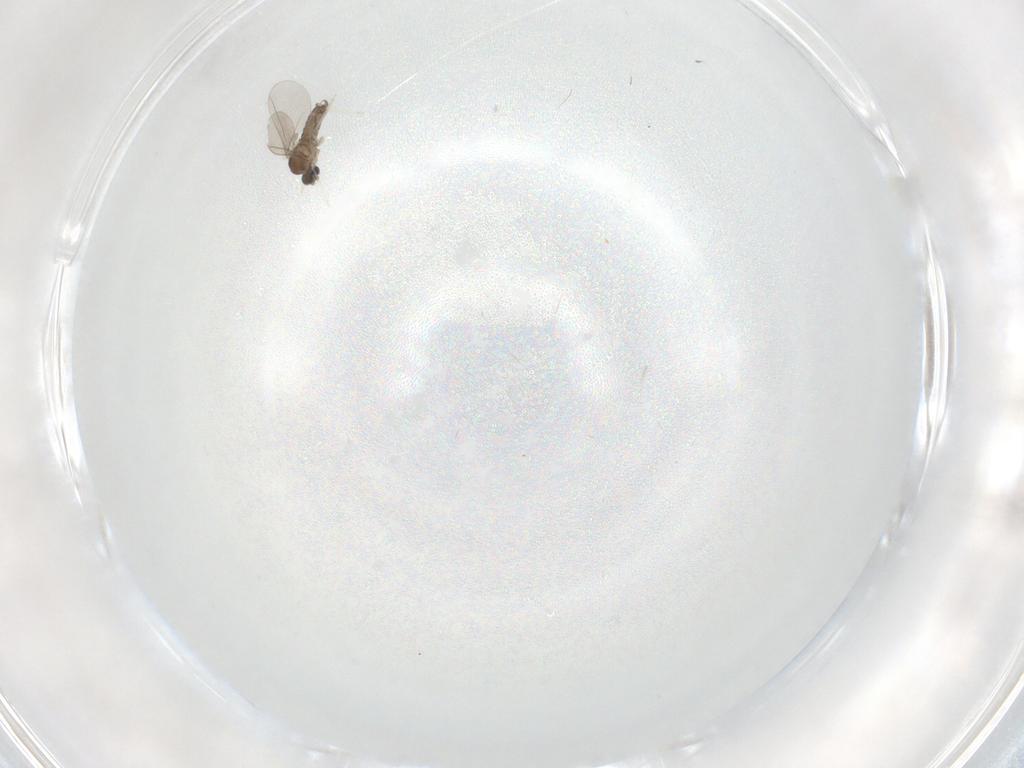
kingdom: Animalia
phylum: Arthropoda
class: Insecta
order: Diptera
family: Cecidomyiidae
